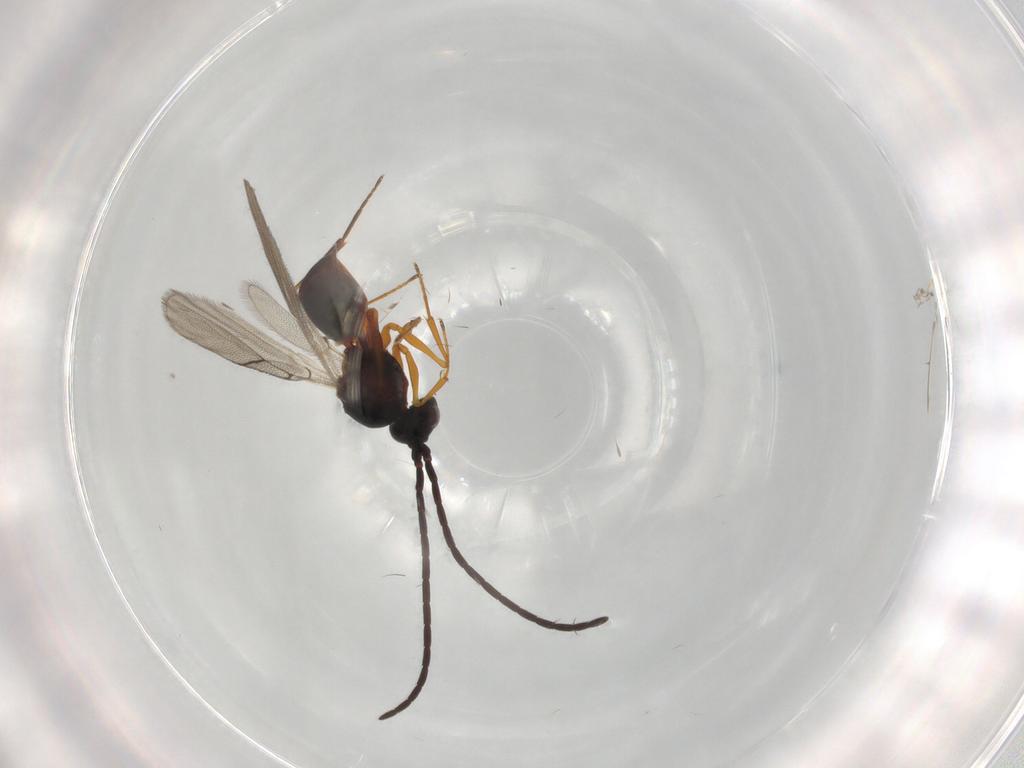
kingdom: Animalia
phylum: Arthropoda
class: Insecta
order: Hymenoptera
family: Figitidae
